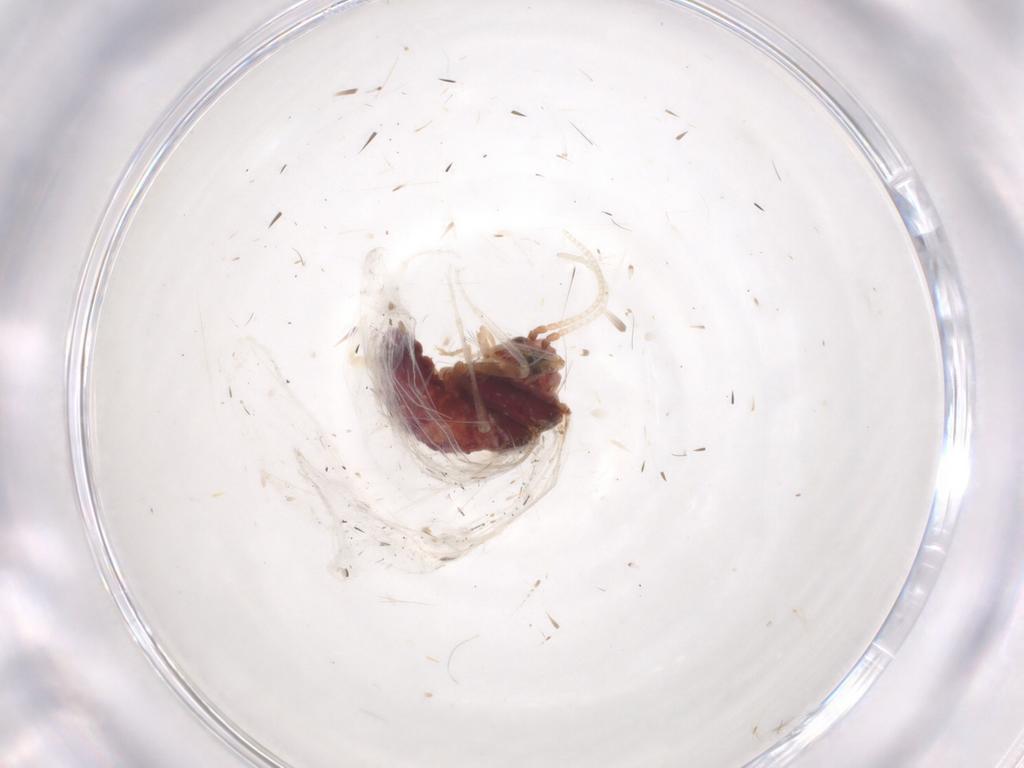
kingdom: Animalia
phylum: Arthropoda
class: Insecta
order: Neuroptera
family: Coniopterygidae
